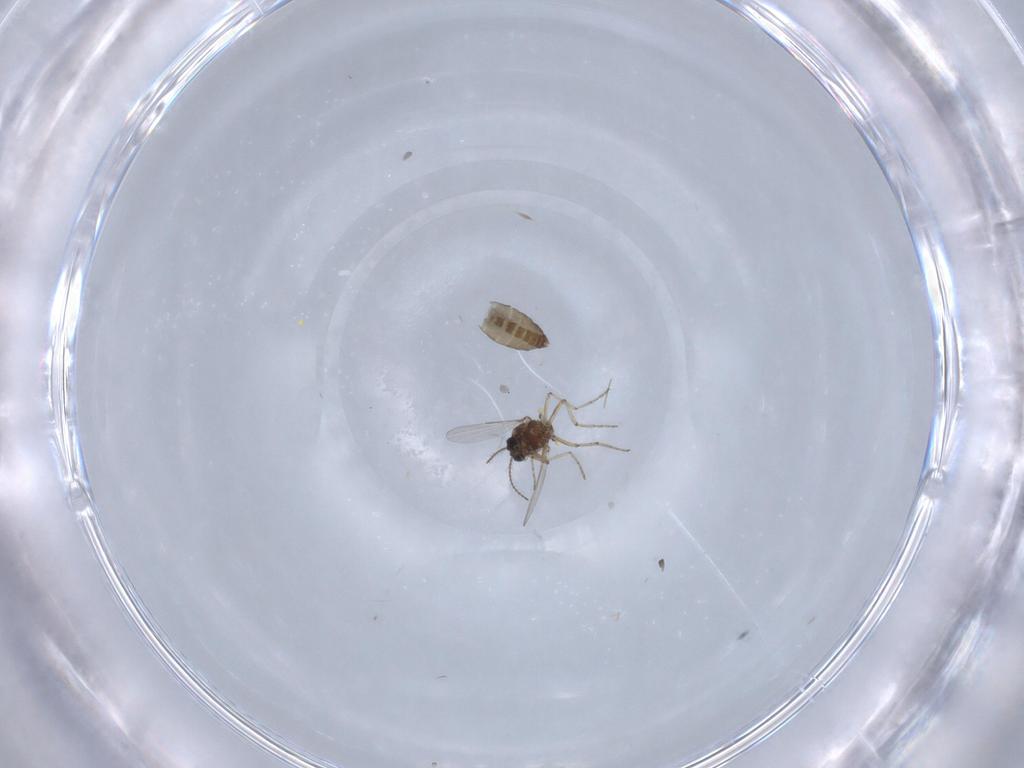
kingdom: Animalia
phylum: Arthropoda
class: Insecta
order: Diptera
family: Ceratopogonidae
